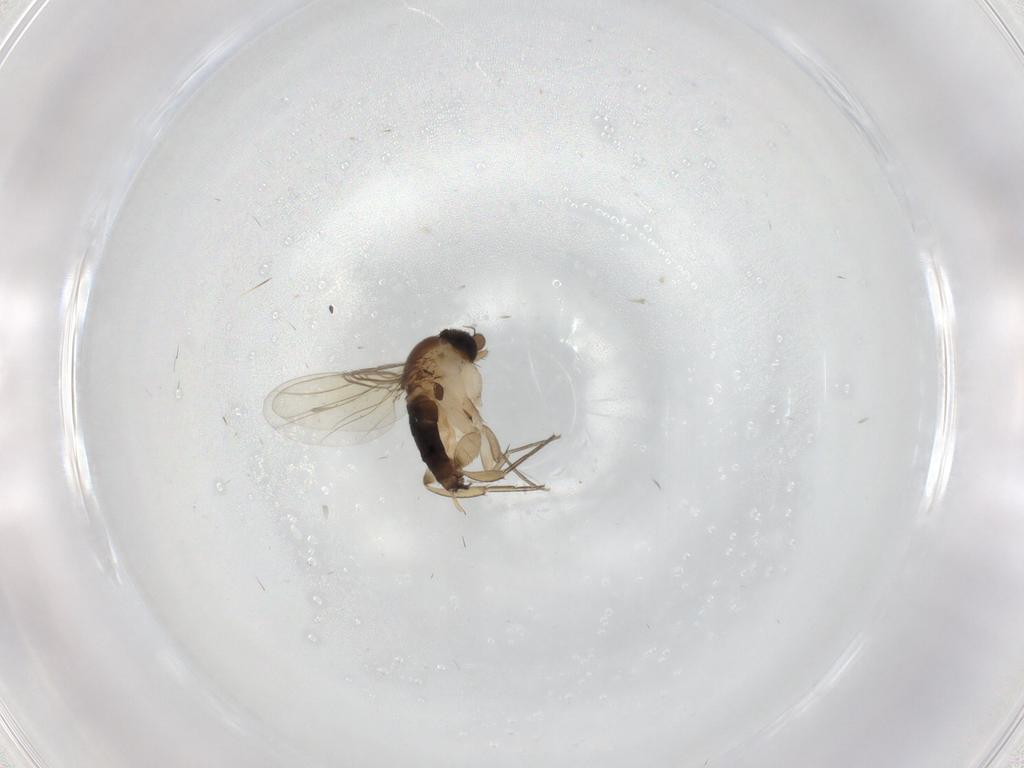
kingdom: Animalia
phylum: Arthropoda
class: Insecta
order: Diptera
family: Phoridae
